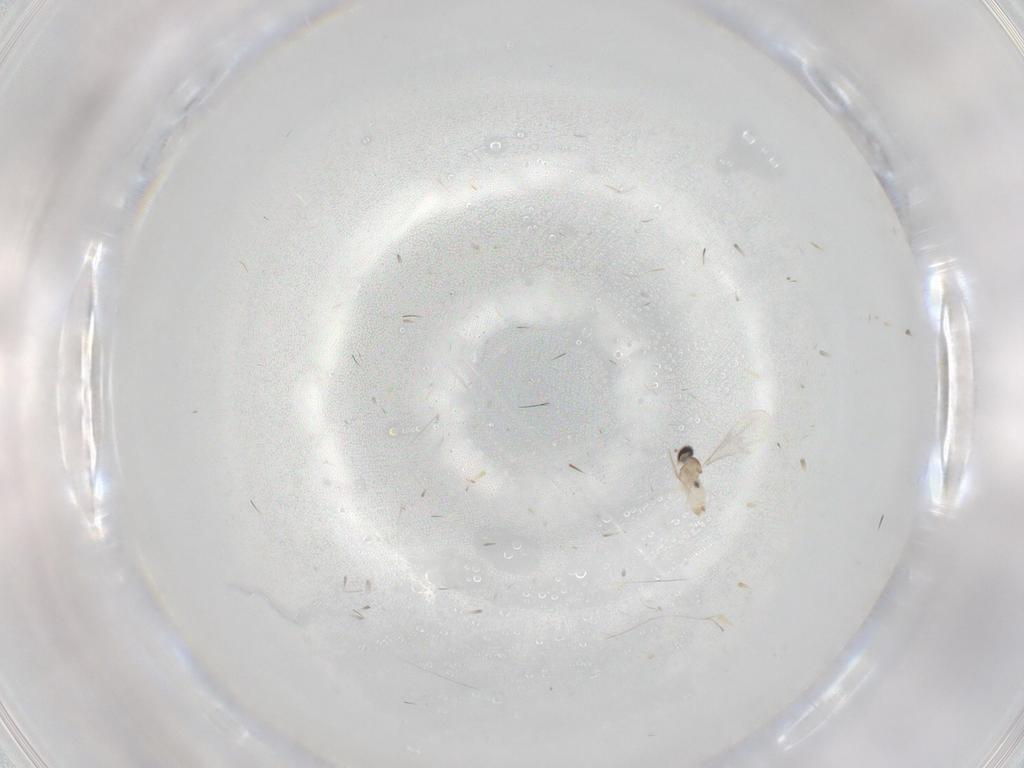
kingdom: Animalia
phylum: Arthropoda
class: Insecta
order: Diptera
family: Cecidomyiidae
